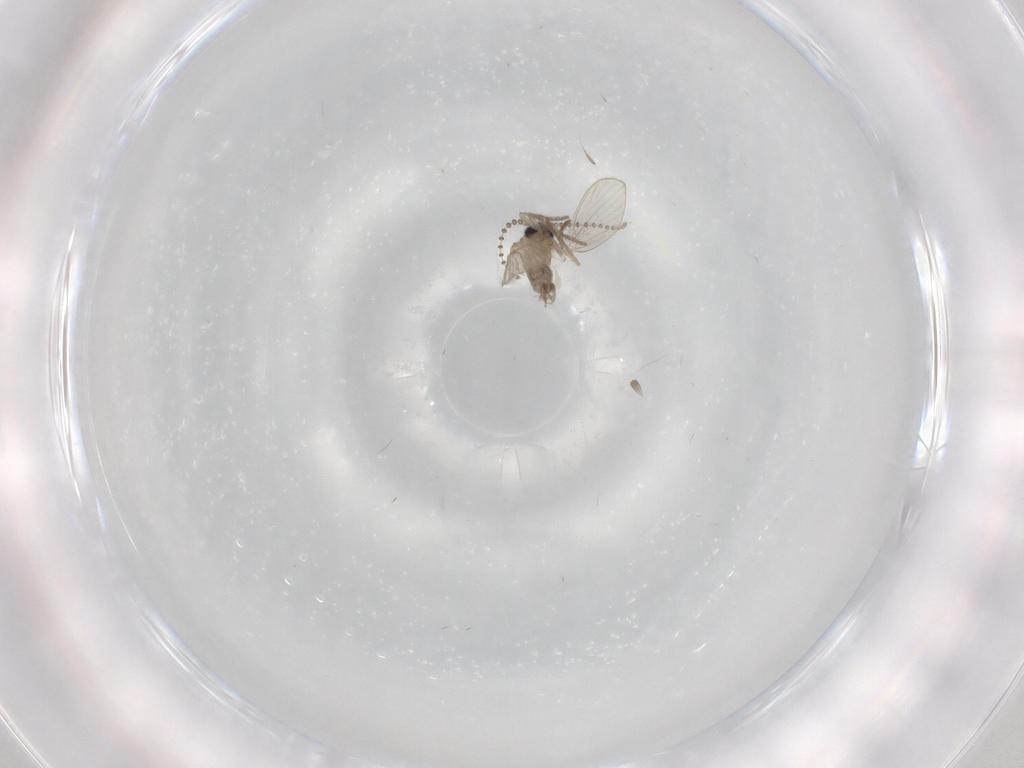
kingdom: Animalia
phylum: Arthropoda
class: Insecta
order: Diptera
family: Psychodidae
